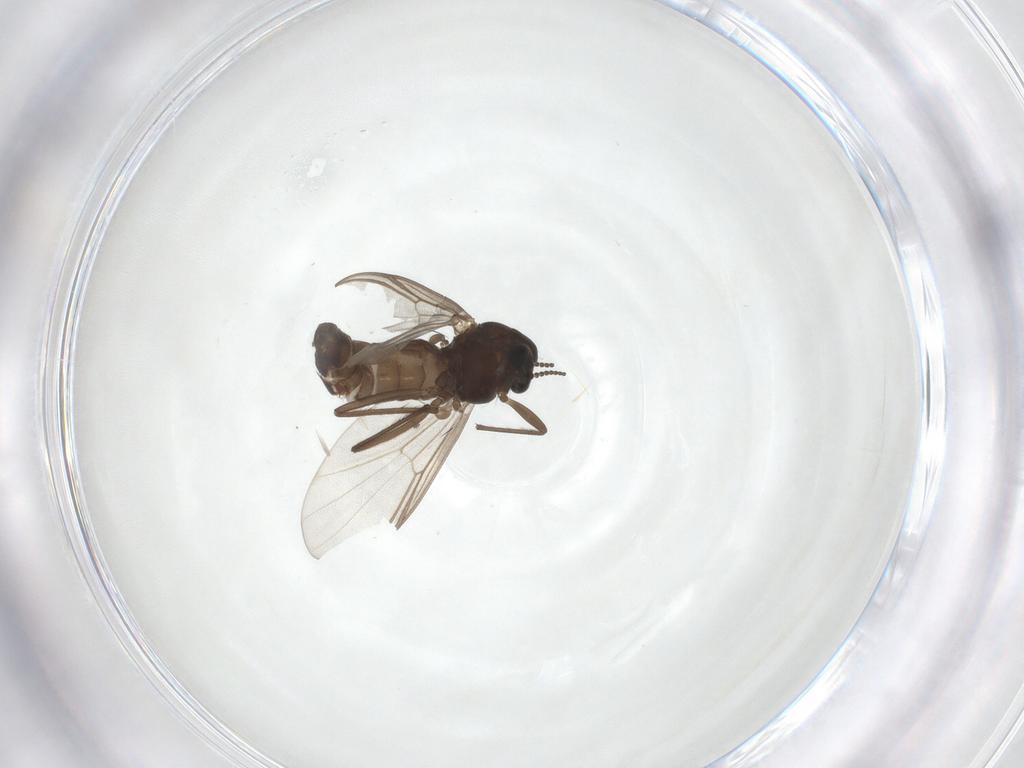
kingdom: Animalia
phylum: Arthropoda
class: Insecta
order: Diptera
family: Chironomidae
